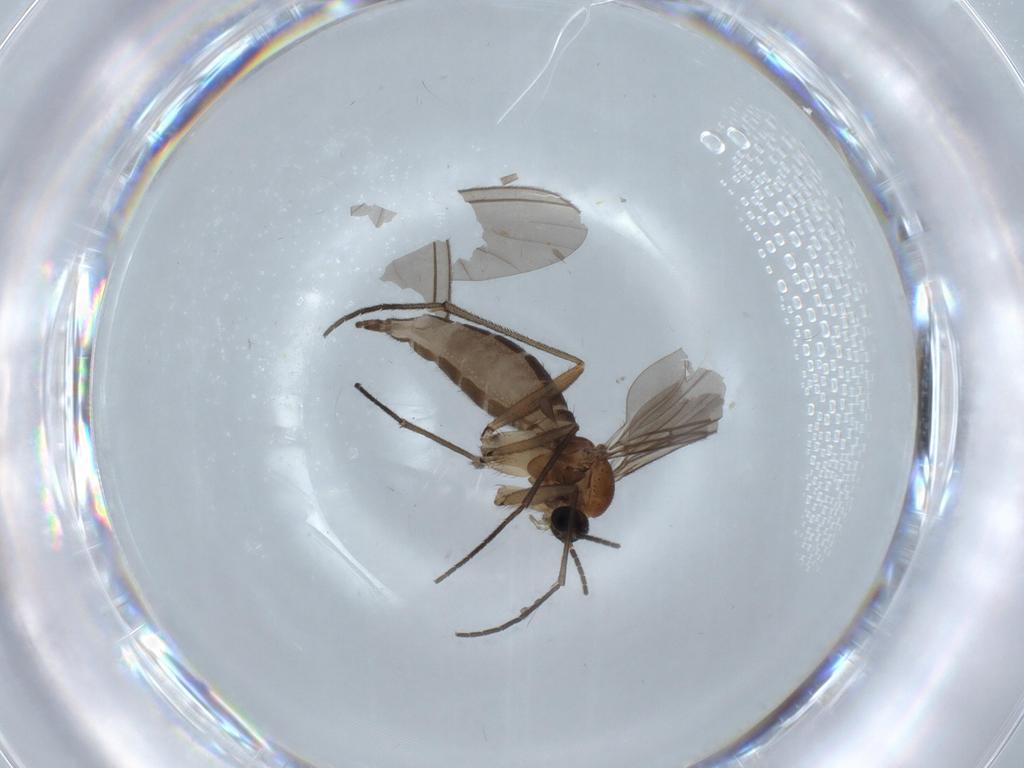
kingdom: Animalia
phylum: Arthropoda
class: Insecta
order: Diptera
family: Sciaridae
